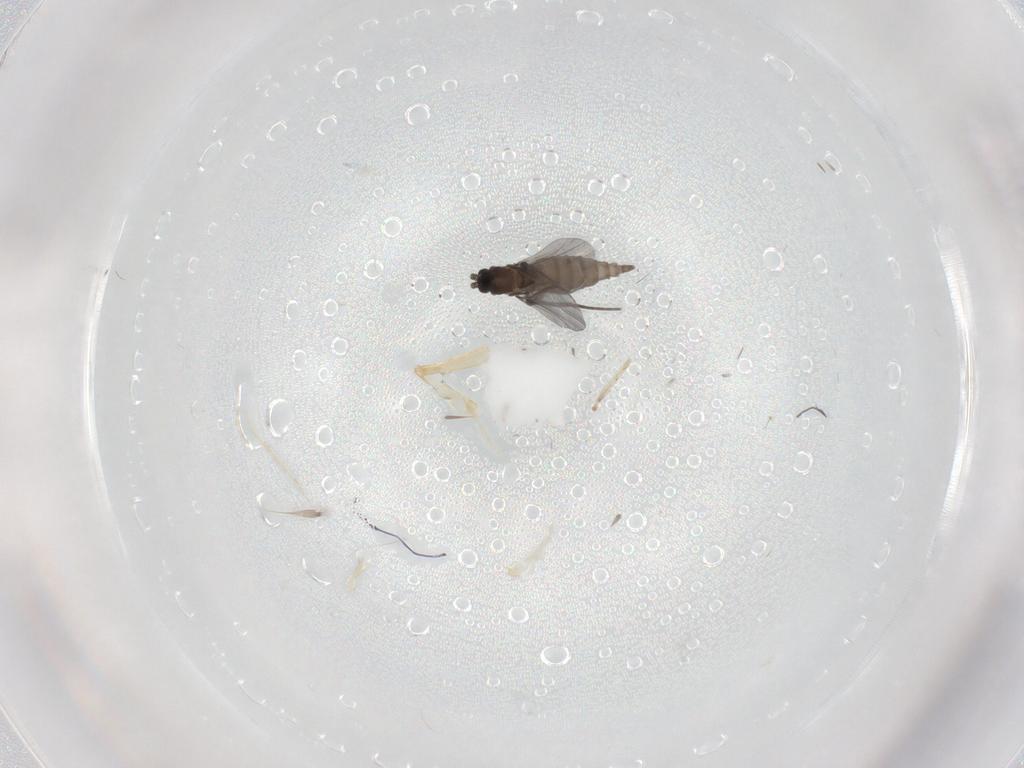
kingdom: Animalia
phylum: Arthropoda
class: Insecta
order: Diptera
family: Sciaridae
